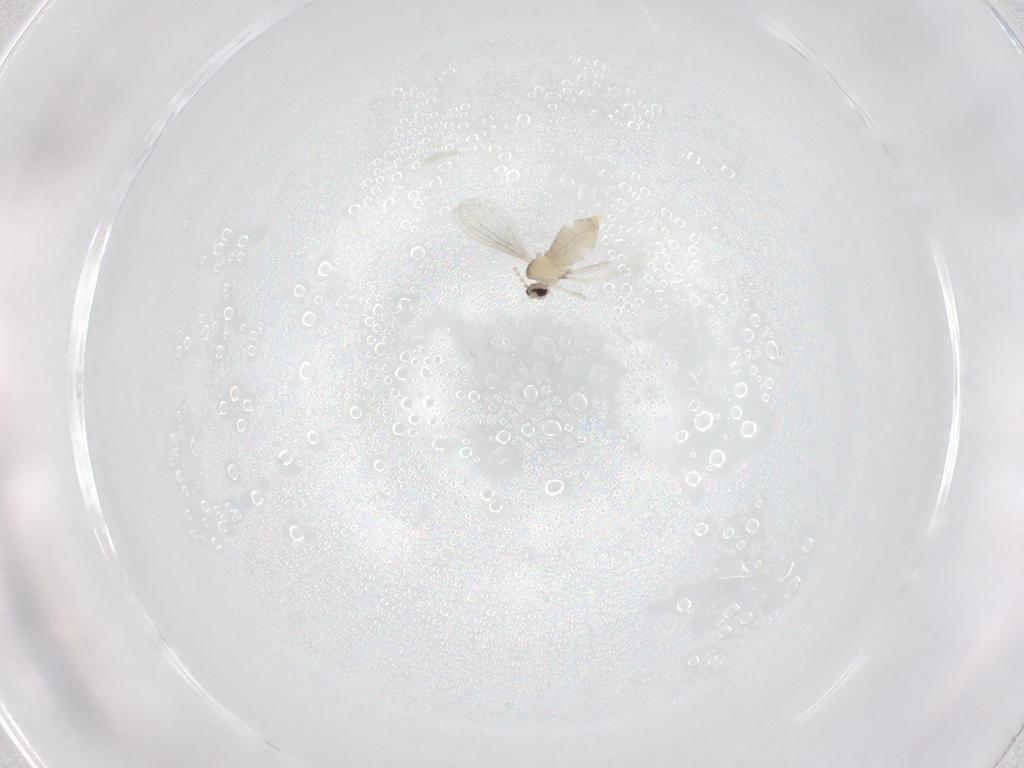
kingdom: Animalia
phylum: Arthropoda
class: Insecta
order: Diptera
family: Cecidomyiidae
